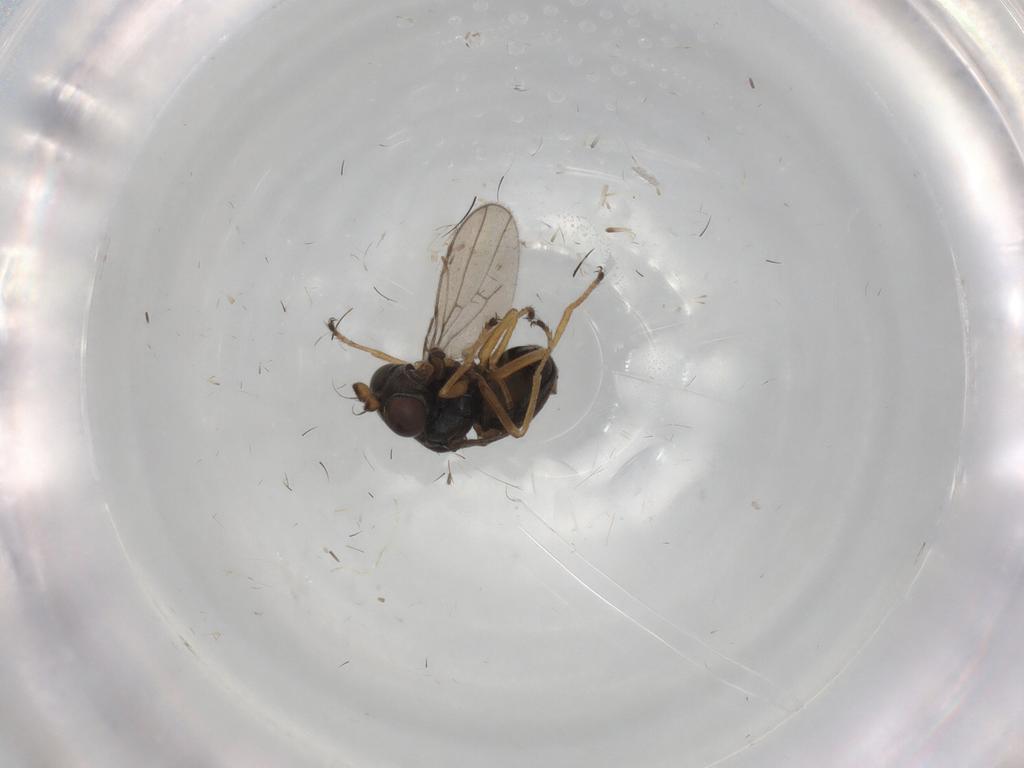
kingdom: Animalia
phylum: Arthropoda
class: Insecta
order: Diptera
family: Ephydridae
